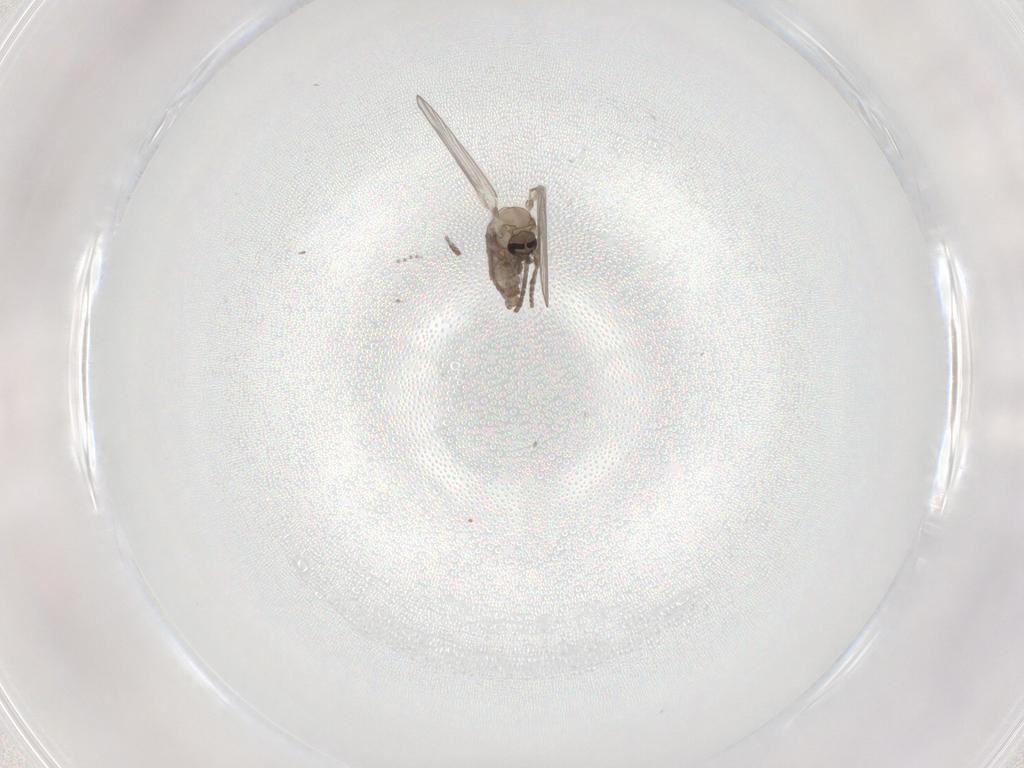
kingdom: Animalia
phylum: Arthropoda
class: Insecta
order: Diptera
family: Psychodidae
